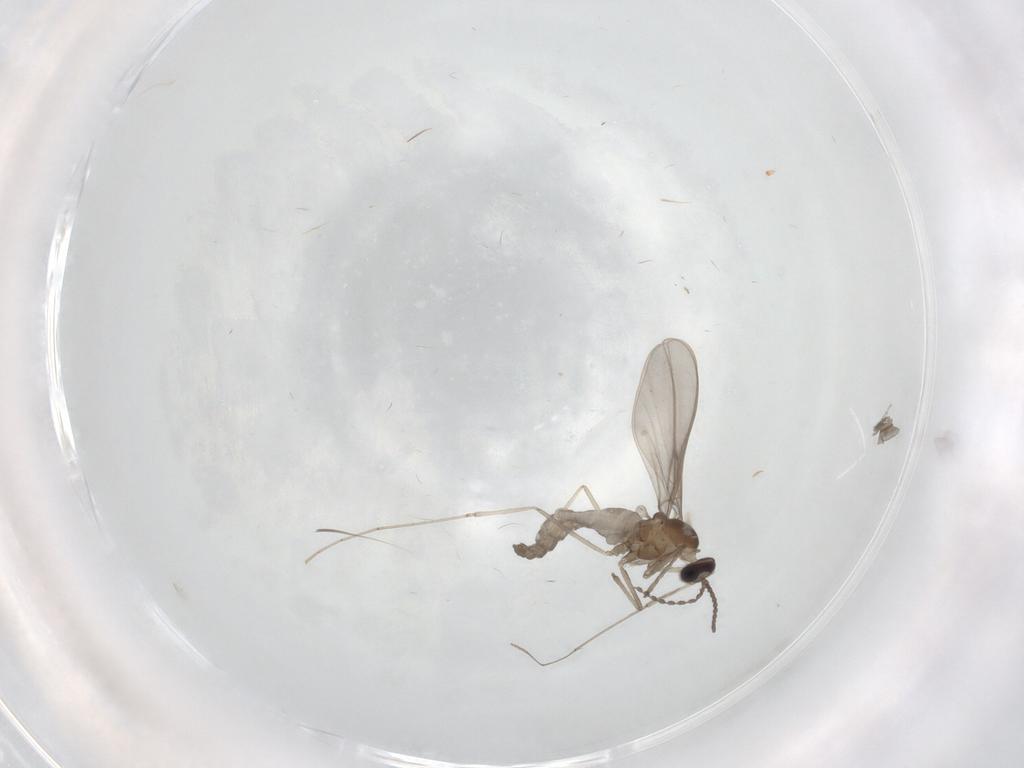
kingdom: Animalia
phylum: Arthropoda
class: Insecta
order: Diptera
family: Cecidomyiidae
